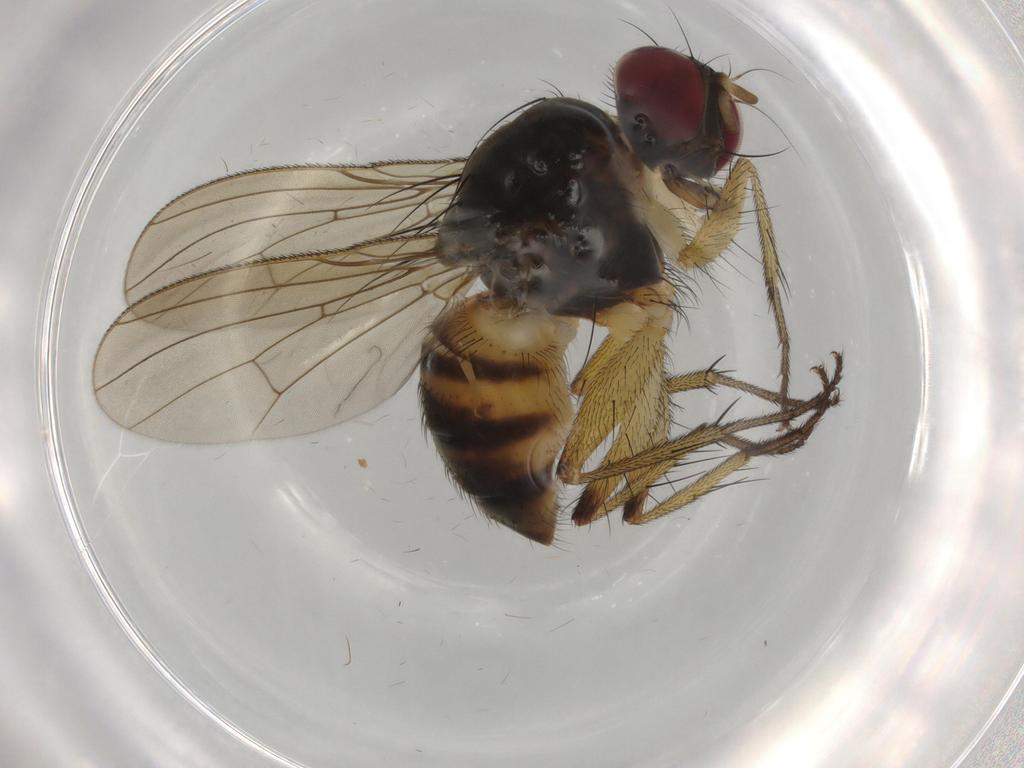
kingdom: Animalia
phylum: Arthropoda
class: Insecta
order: Diptera
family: Muscidae
